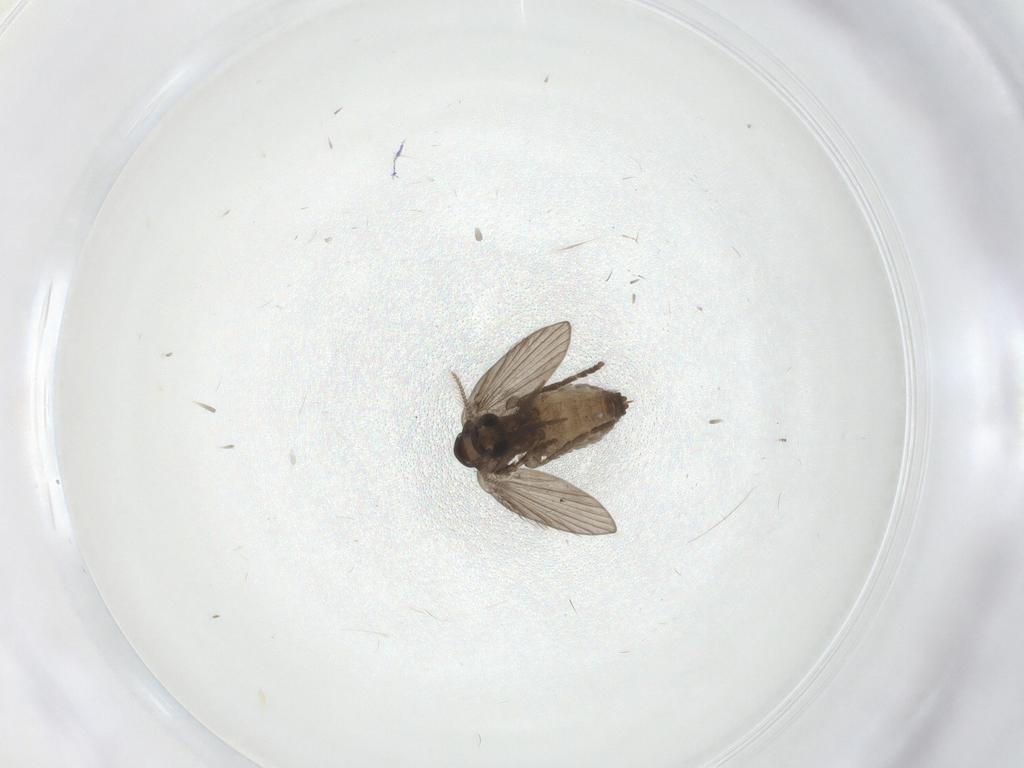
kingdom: Animalia
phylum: Arthropoda
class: Insecta
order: Diptera
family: Psychodidae
